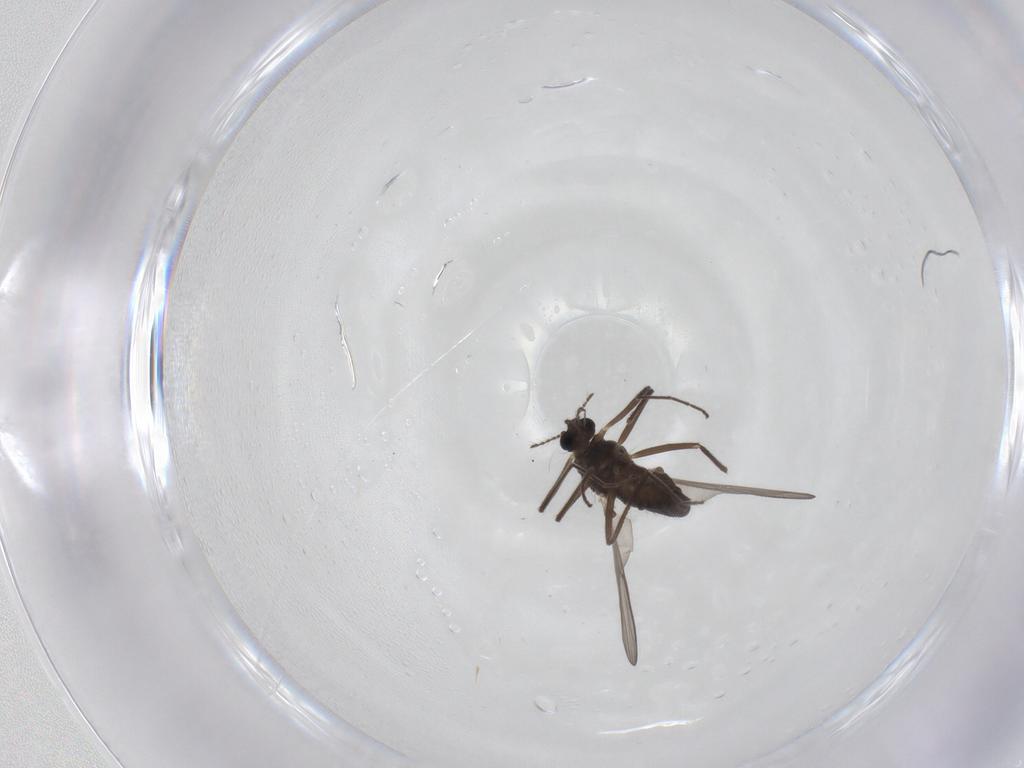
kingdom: Animalia
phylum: Arthropoda
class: Insecta
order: Diptera
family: Chironomidae
